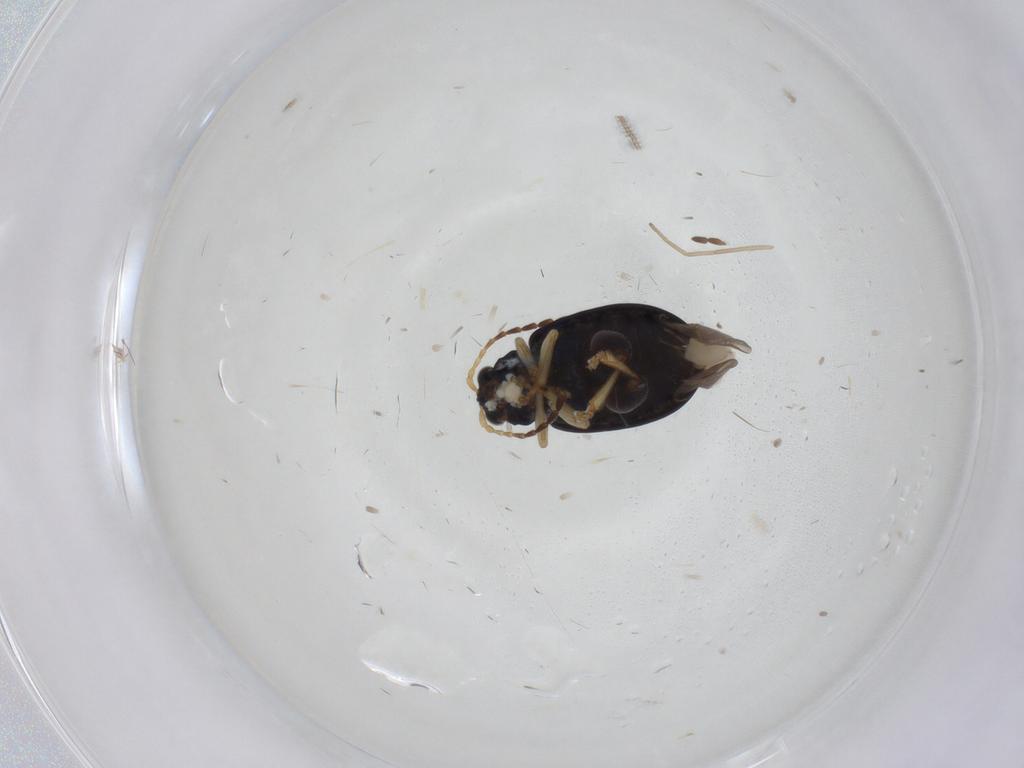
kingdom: Animalia
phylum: Arthropoda
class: Insecta
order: Coleoptera
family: Chrysomelidae
